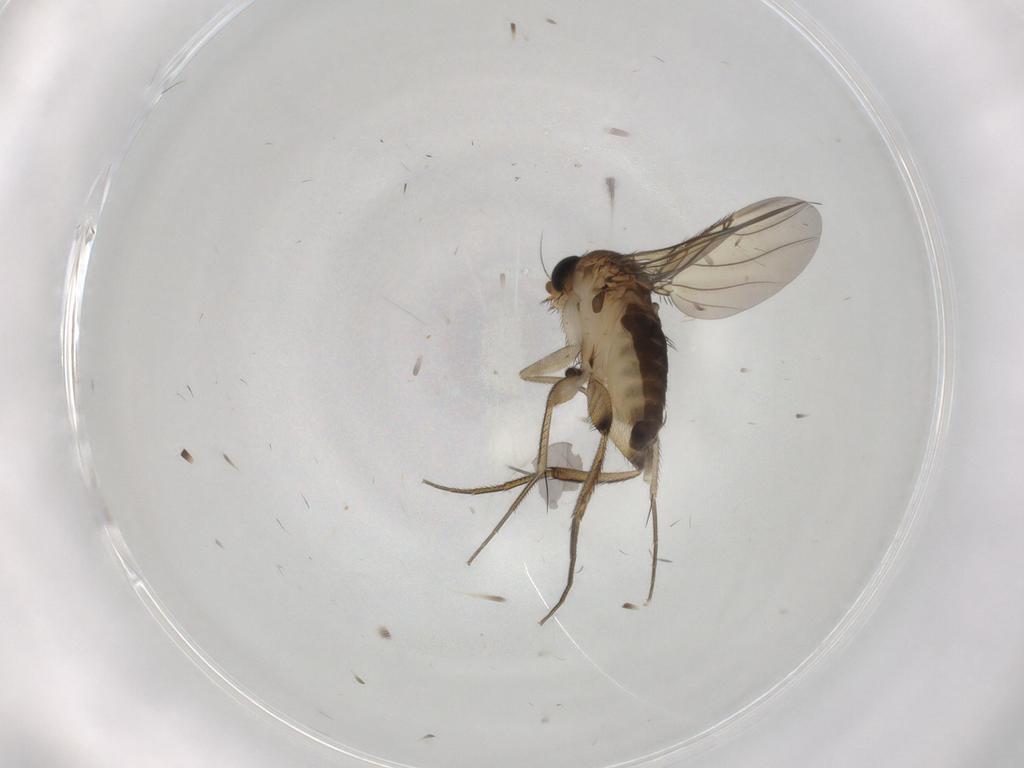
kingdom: Animalia
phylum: Arthropoda
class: Insecta
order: Diptera
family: Phoridae
